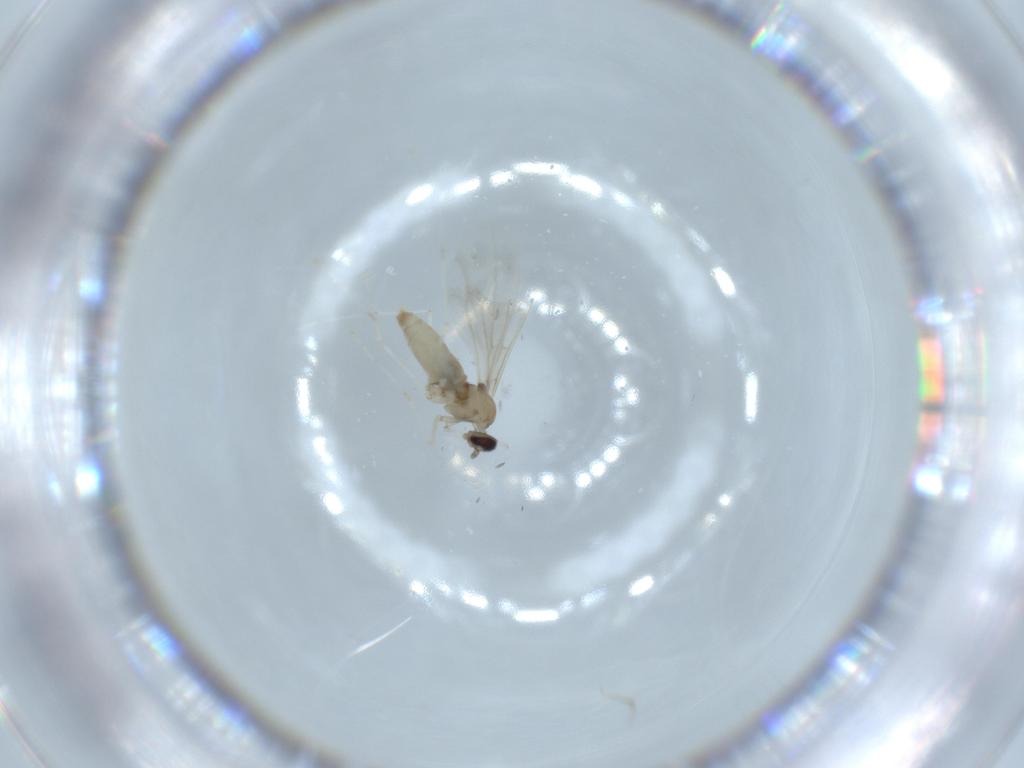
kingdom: Animalia
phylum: Arthropoda
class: Insecta
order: Diptera
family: Cecidomyiidae
